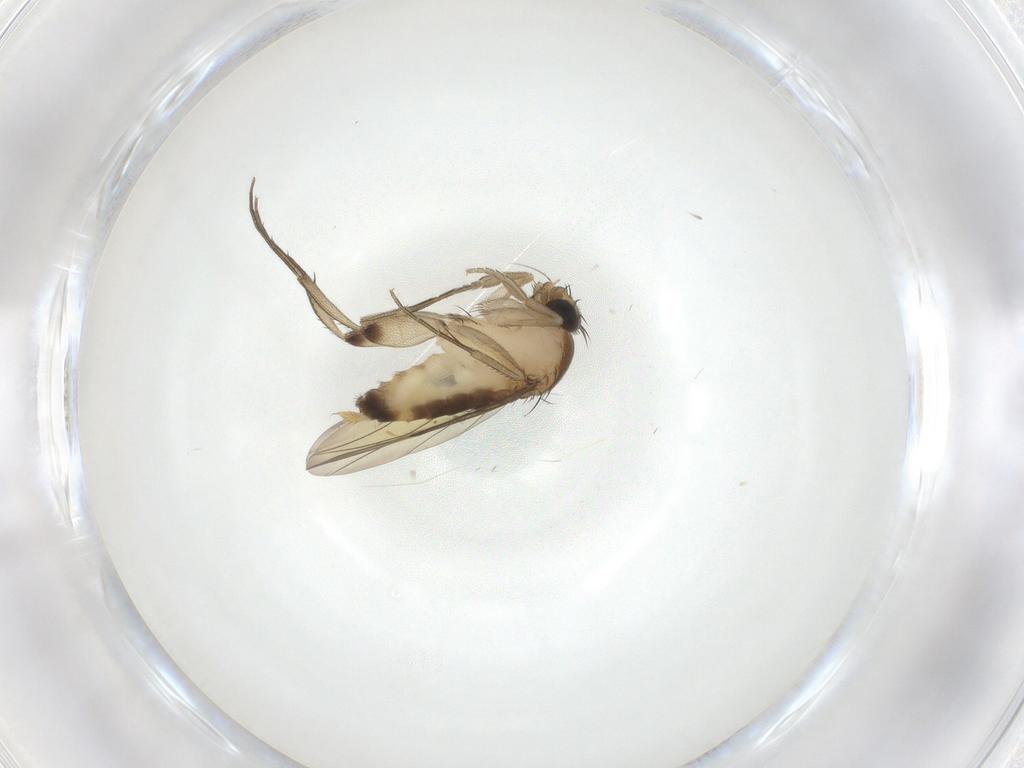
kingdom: Animalia
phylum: Arthropoda
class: Insecta
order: Diptera
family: Phoridae
